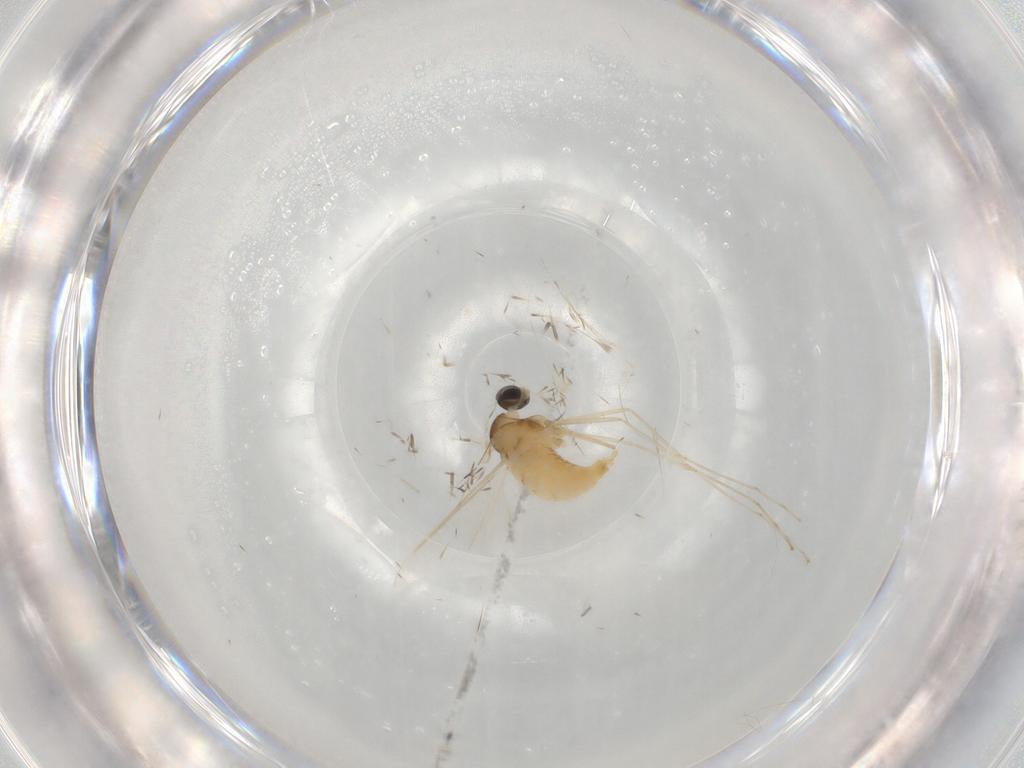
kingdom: Animalia
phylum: Arthropoda
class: Insecta
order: Diptera
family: Cecidomyiidae
